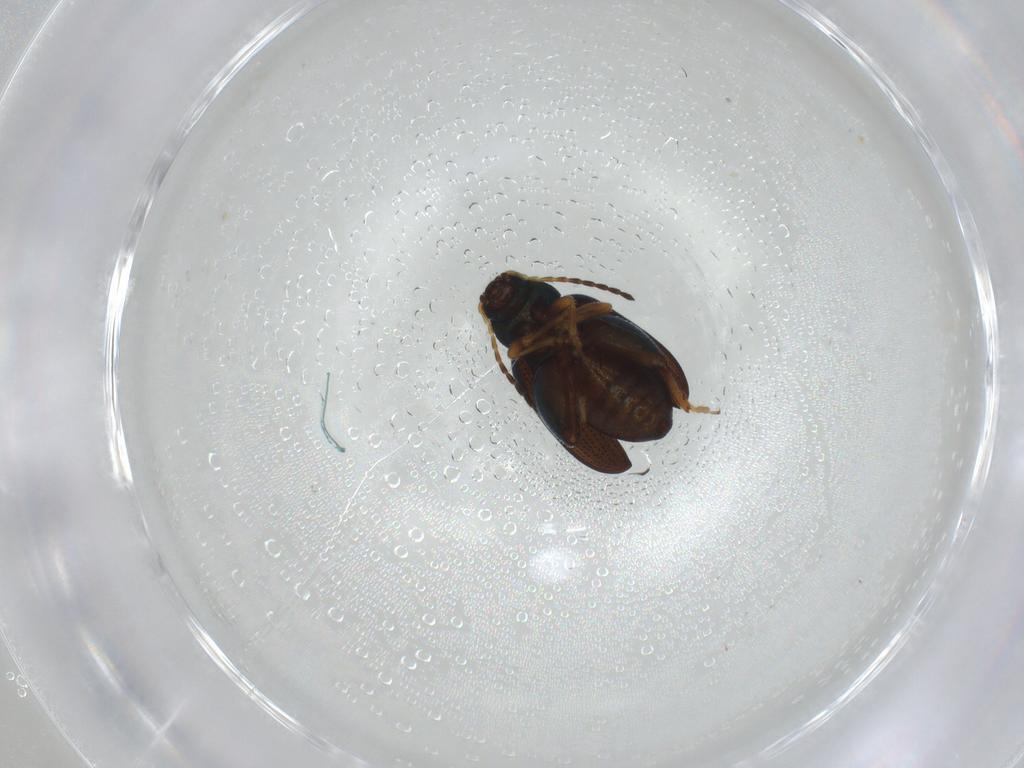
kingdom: Animalia
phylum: Arthropoda
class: Insecta
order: Coleoptera
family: Chrysomelidae
